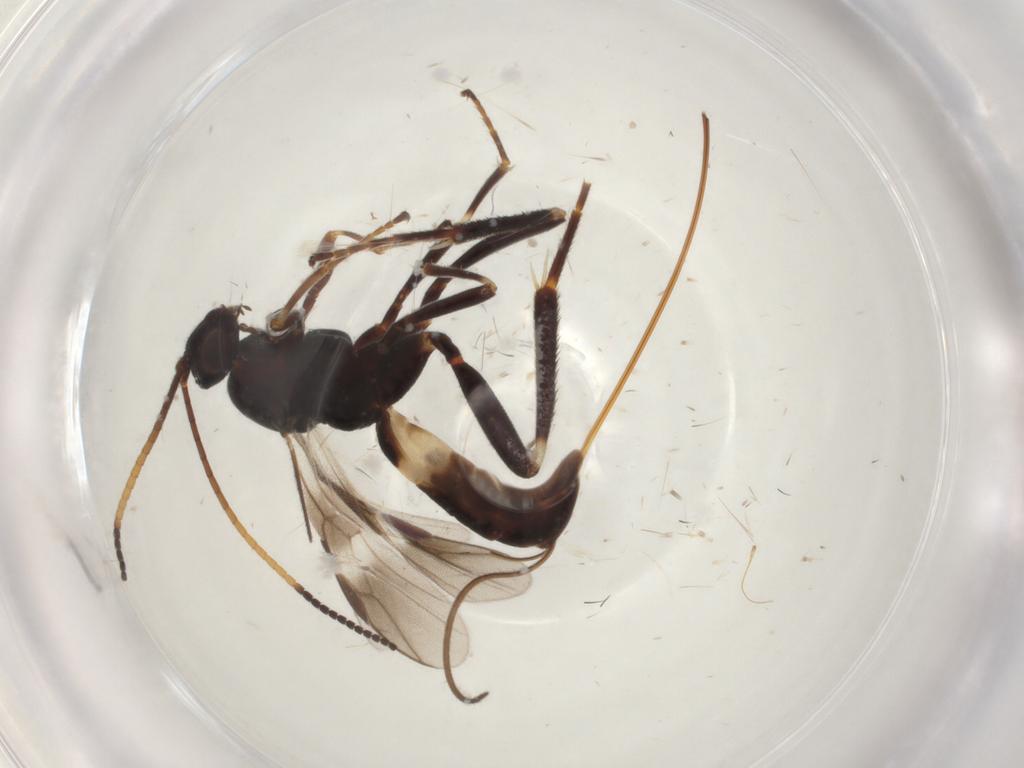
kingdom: Animalia
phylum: Arthropoda
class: Insecta
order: Hymenoptera
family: Braconidae
